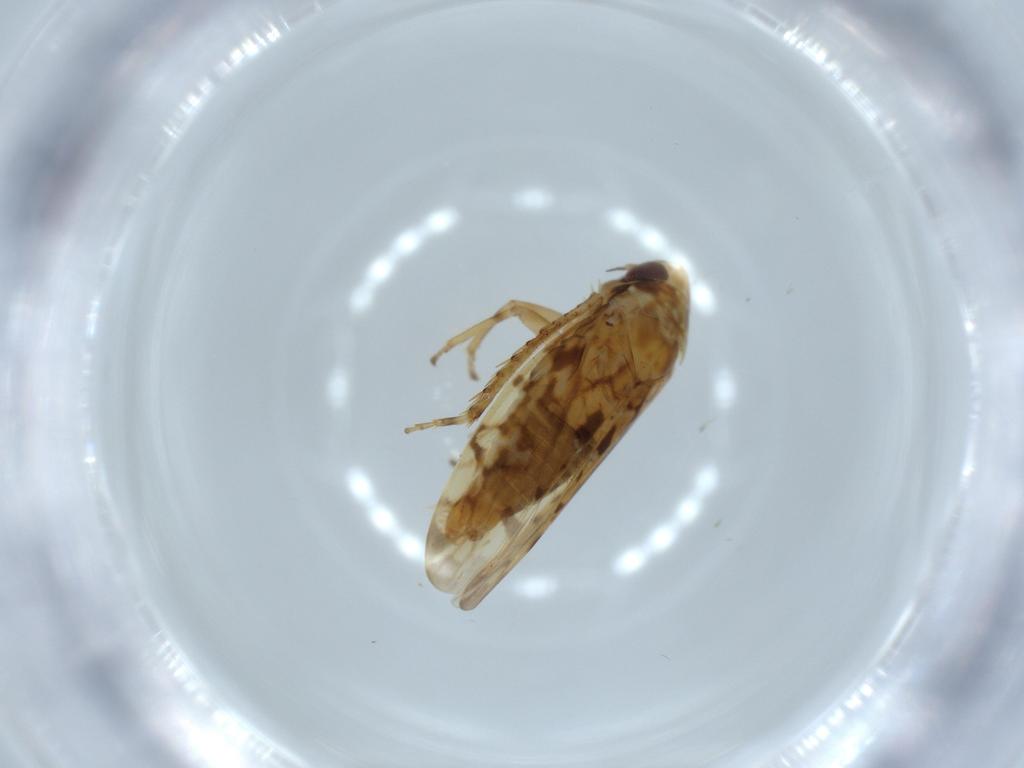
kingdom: Animalia
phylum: Arthropoda
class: Insecta
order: Hemiptera
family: Cicadellidae
